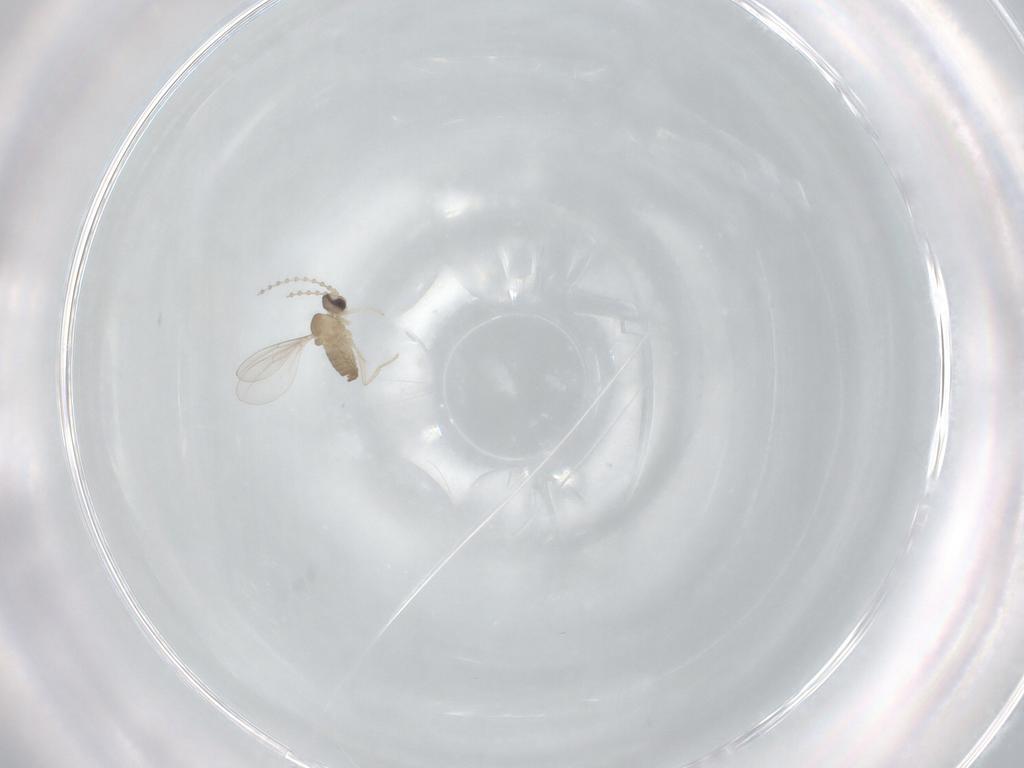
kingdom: Animalia
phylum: Arthropoda
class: Insecta
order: Diptera
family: Cecidomyiidae
